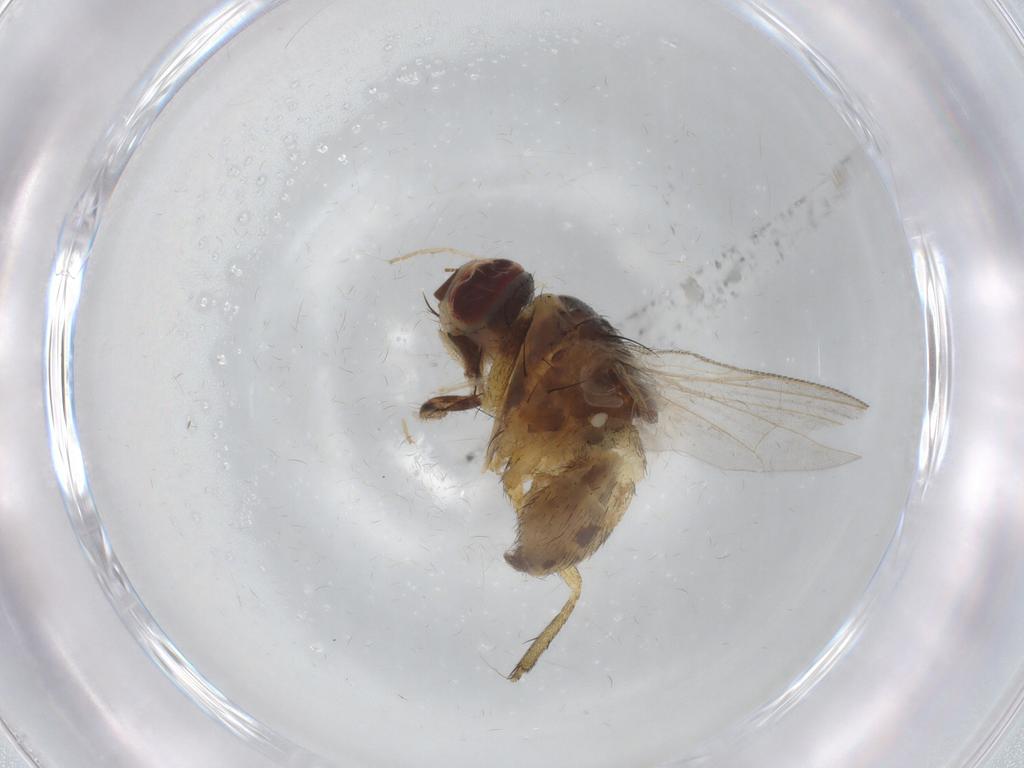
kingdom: Animalia
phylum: Arthropoda
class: Insecta
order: Diptera
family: Muscidae
